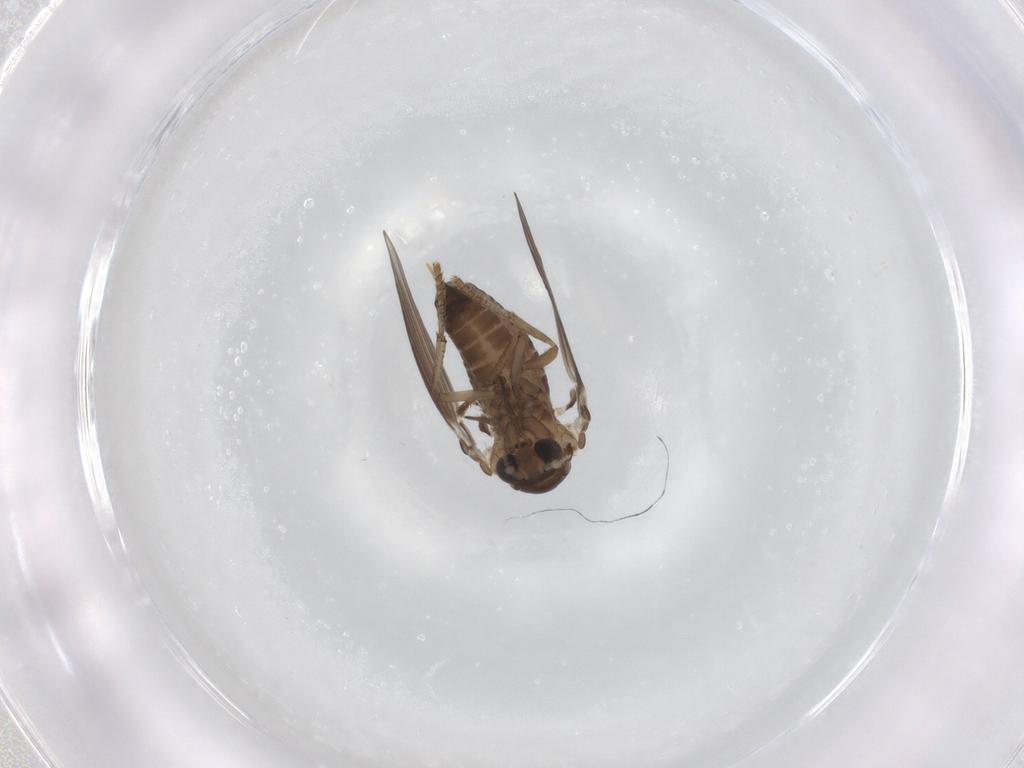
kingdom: Animalia
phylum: Arthropoda
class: Insecta
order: Diptera
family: Psychodidae
